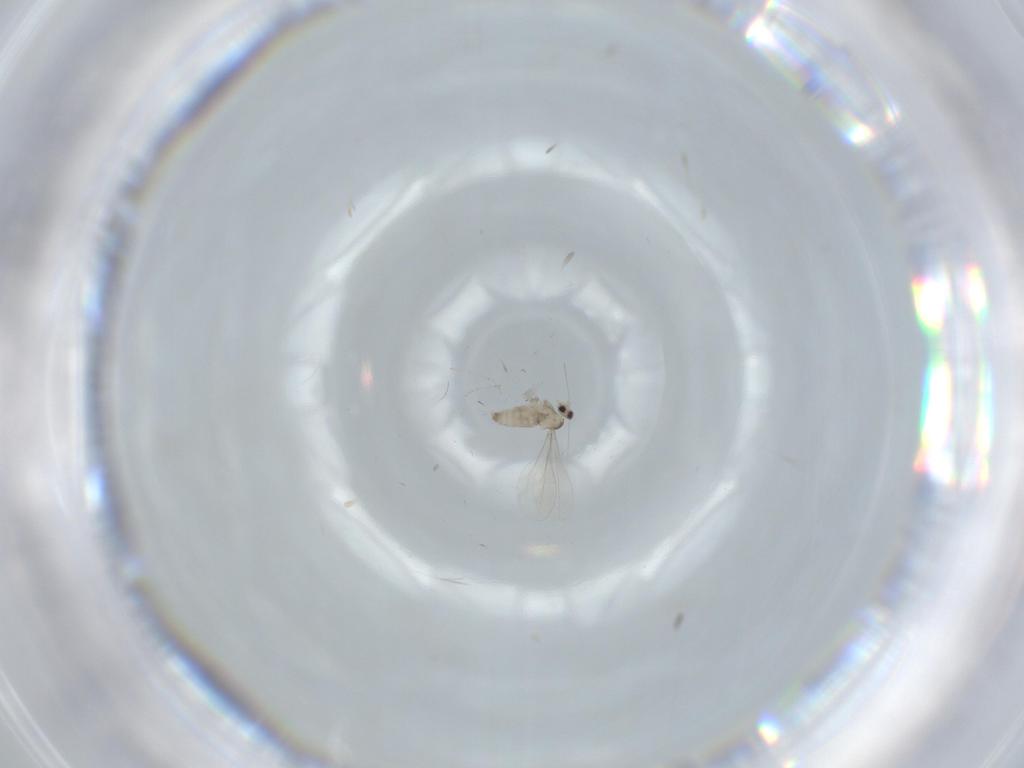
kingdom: Animalia
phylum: Arthropoda
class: Insecta
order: Diptera
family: Cecidomyiidae
